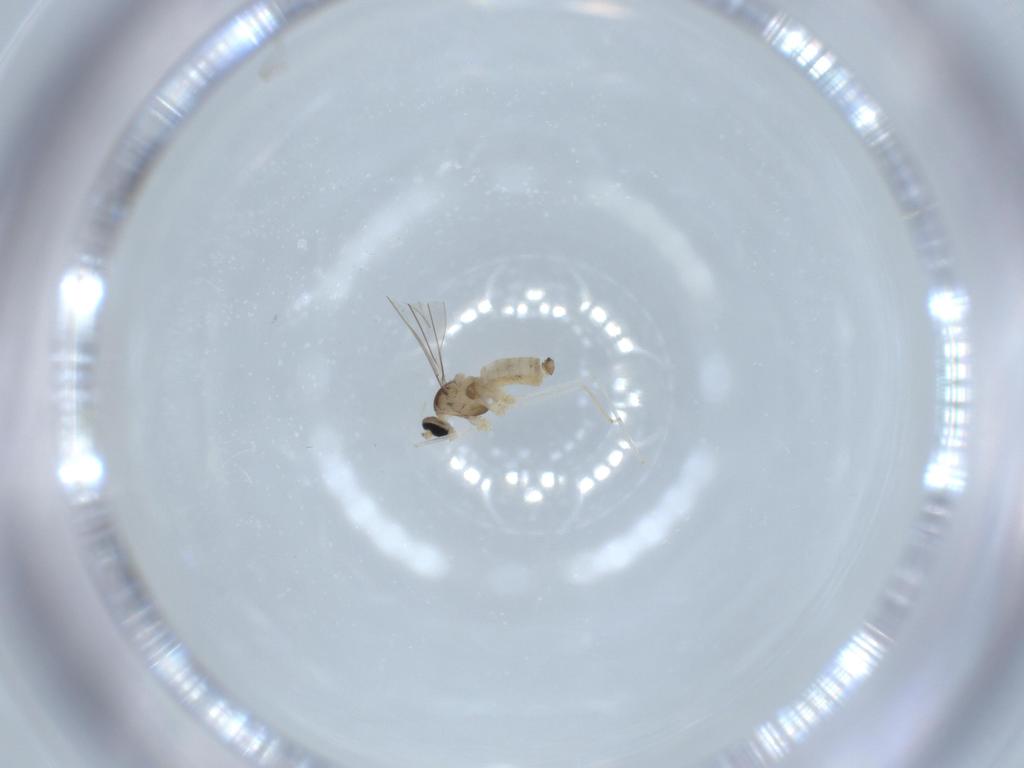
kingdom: Animalia
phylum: Arthropoda
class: Insecta
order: Diptera
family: Cecidomyiidae
